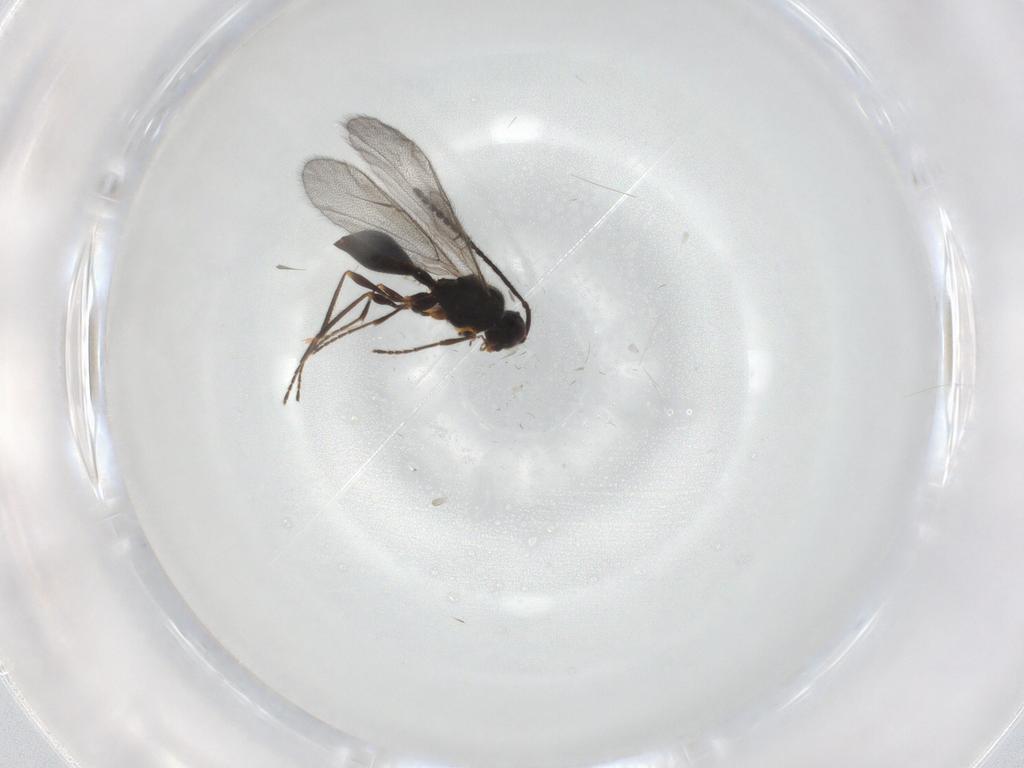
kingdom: Animalia
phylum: Arthropoda
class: Insecta
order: Hymenoptera
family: Diapriidae
